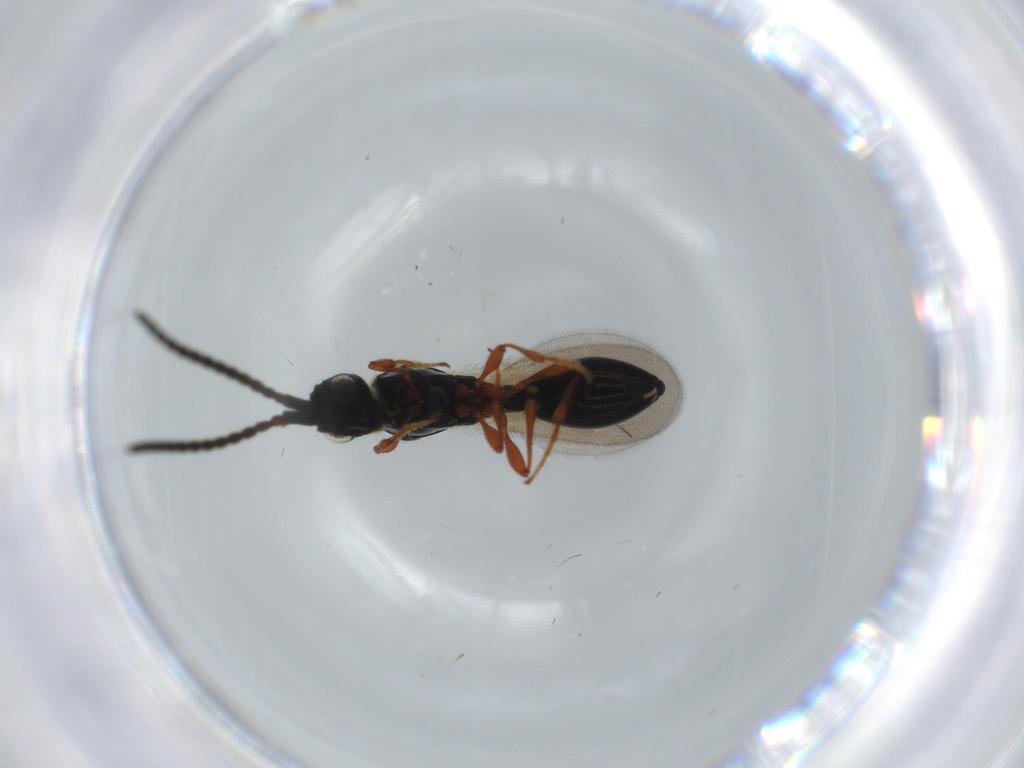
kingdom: Animalia
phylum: Arthropoda
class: Insecta
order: Hymenoptera
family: Diapriidae
